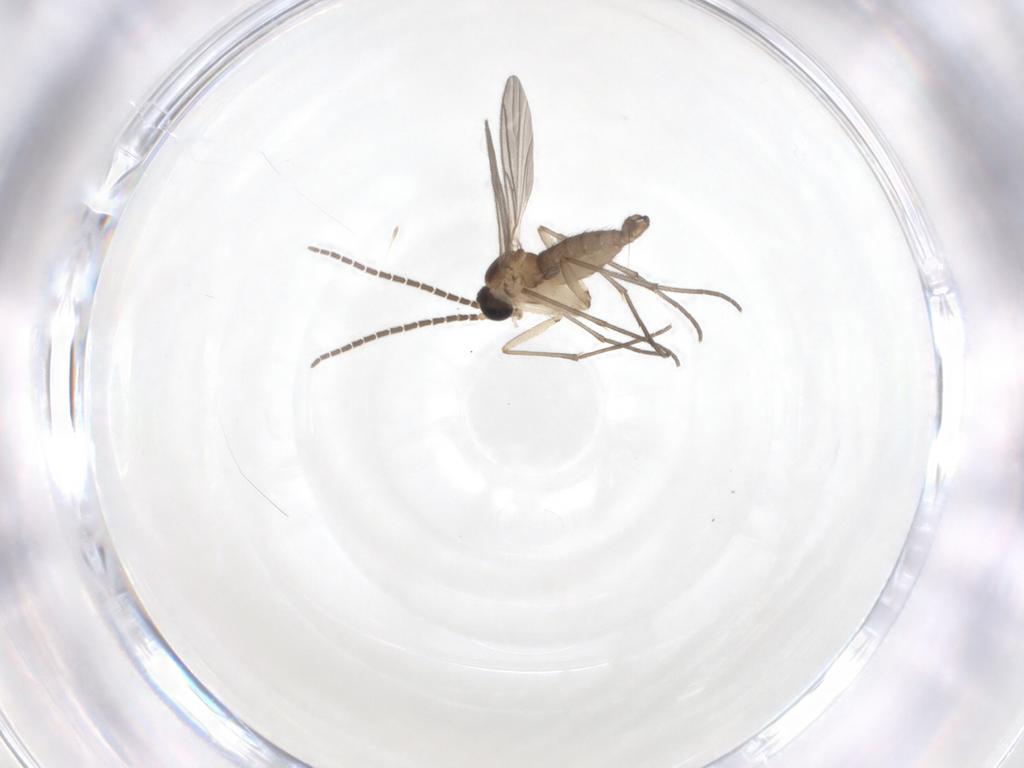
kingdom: Animalia
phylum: Arthropoda
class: Insecta
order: Diptera
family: Sciaridae
